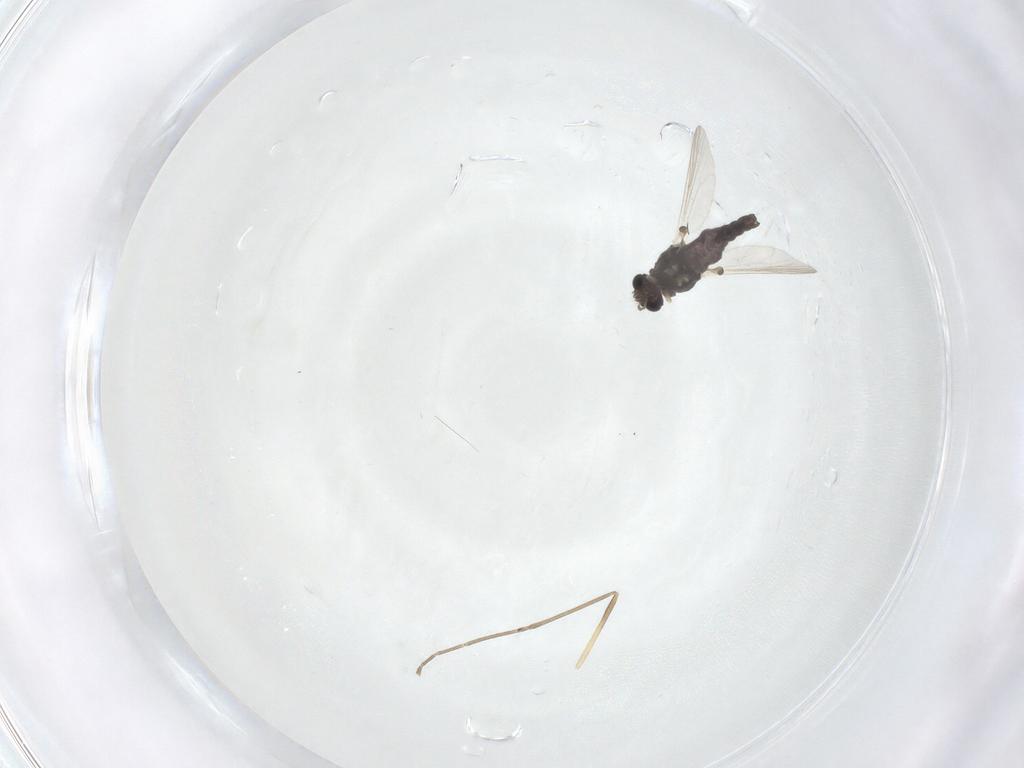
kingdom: Animalia
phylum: Arthropoda
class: Insecta
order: Diptera
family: Chironomidae
